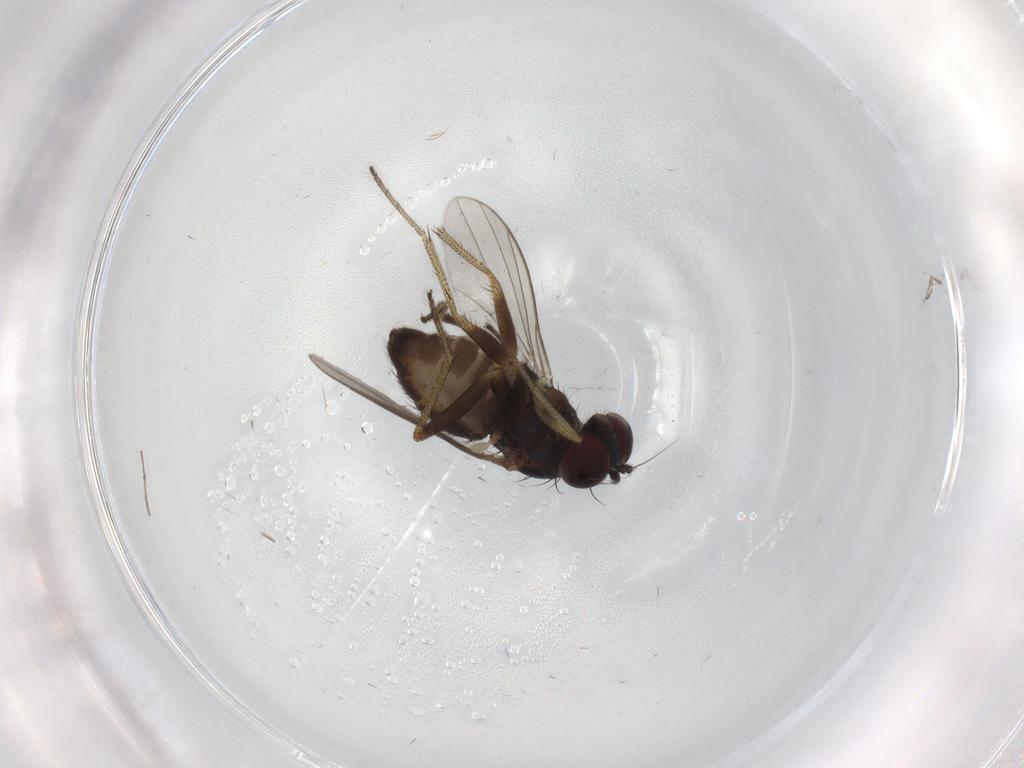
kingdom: Animalia
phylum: Arthropoda
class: Insecta
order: Diptera
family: Dolichopodidae
